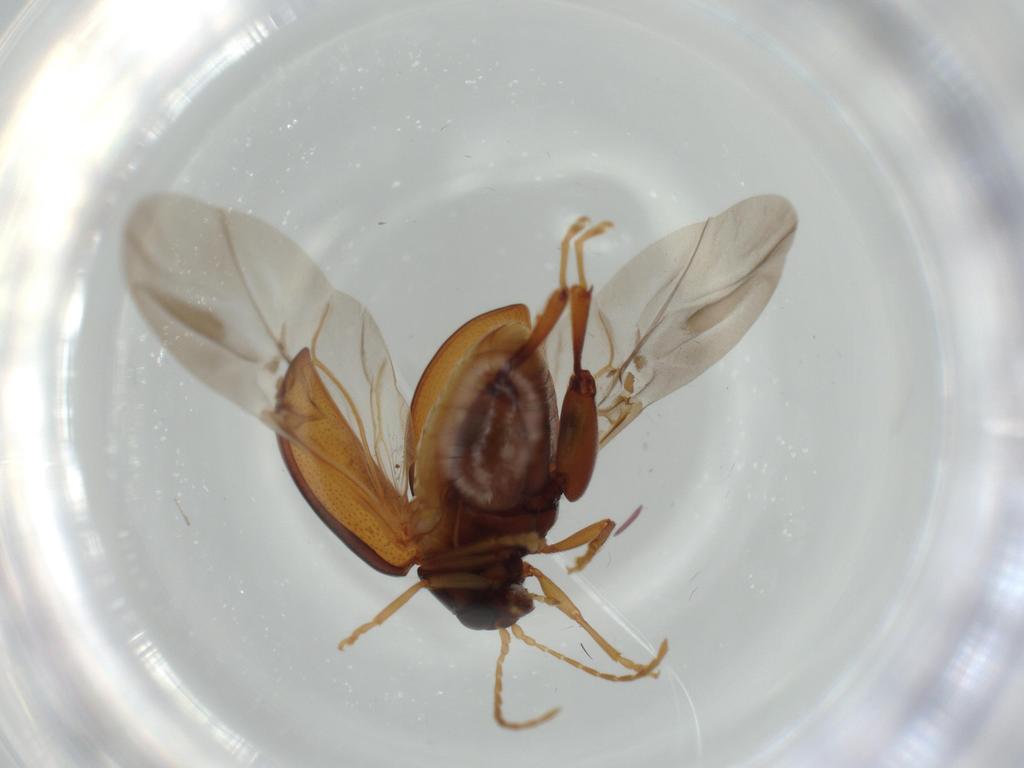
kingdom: Animalia
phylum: Arthropoda
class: Insecta
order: Coleoptera
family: Chrysomelidae
